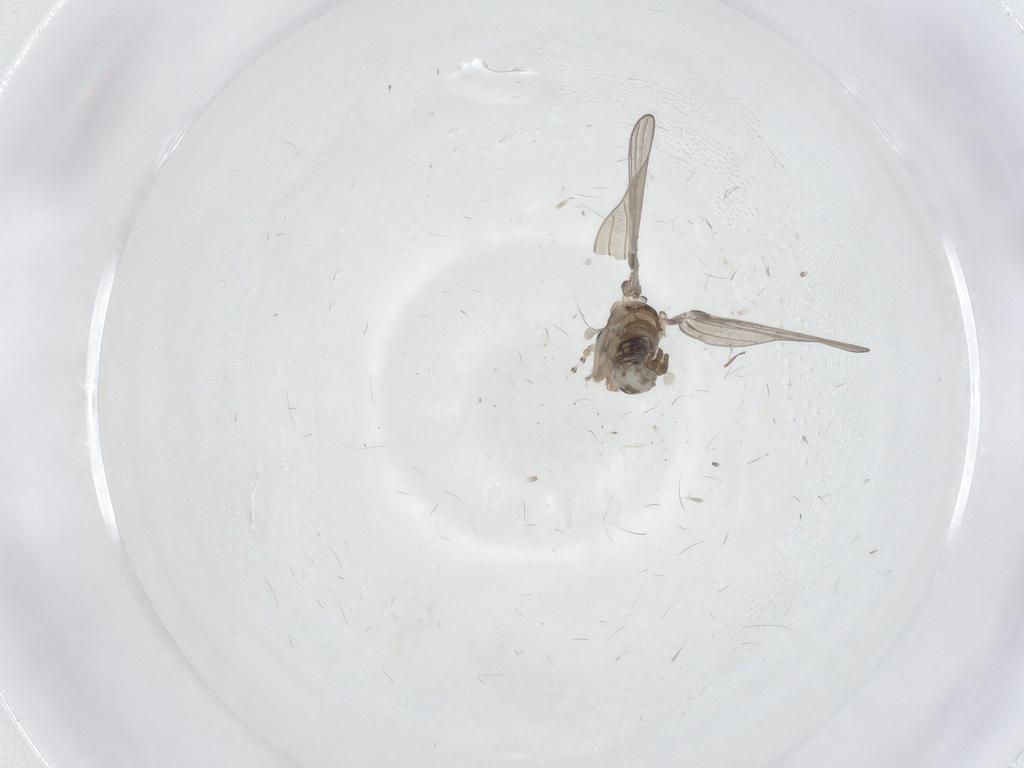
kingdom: Animalia
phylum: Arthropoda
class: Insecta
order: Diptera
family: Psychodidae
